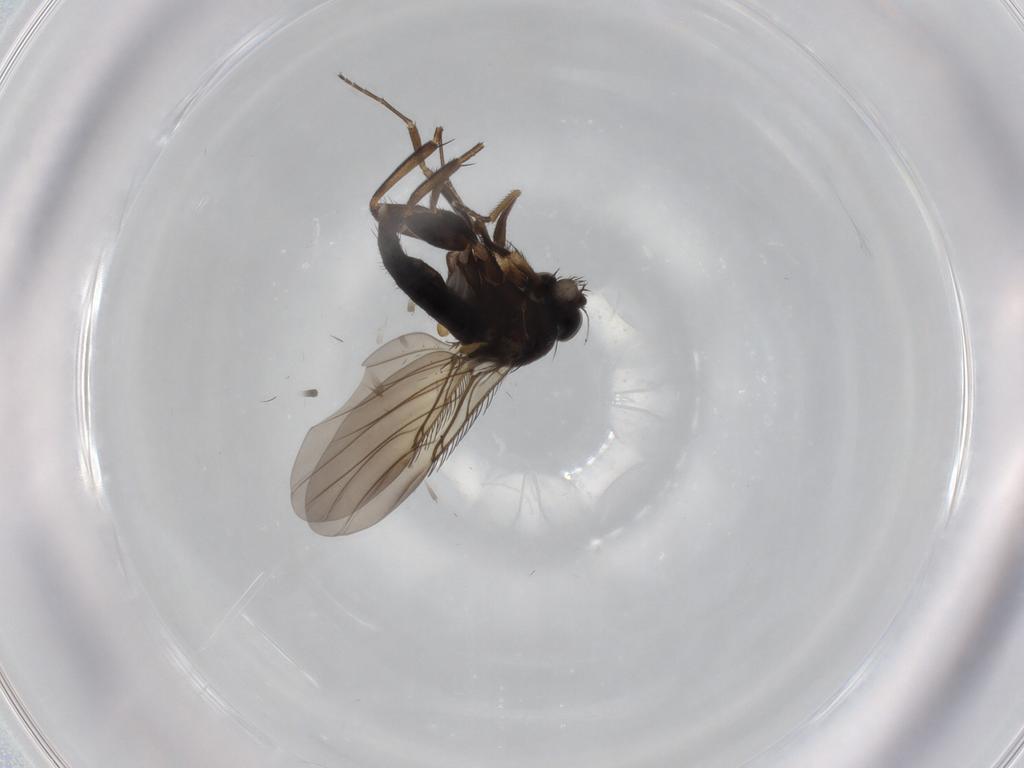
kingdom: Animalia
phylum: Arthropoda
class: Insecta
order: Diptera
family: Phoridae
